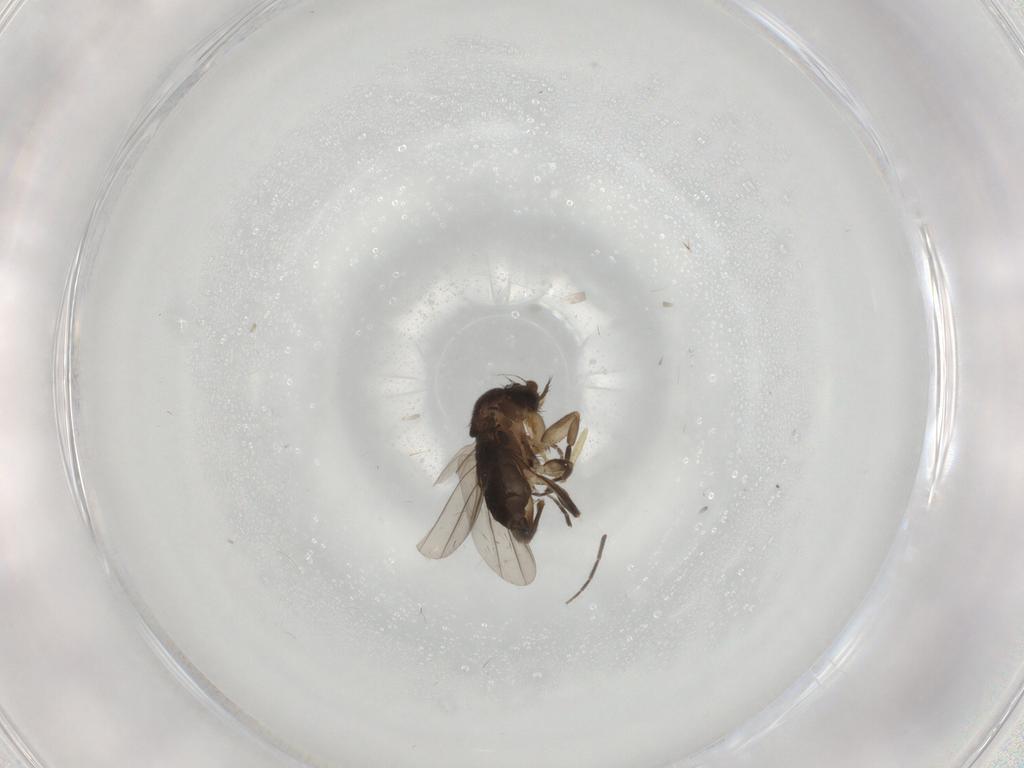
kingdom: Animalia
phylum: Arthropoda
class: Insecta
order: Diptera
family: Phoridae
